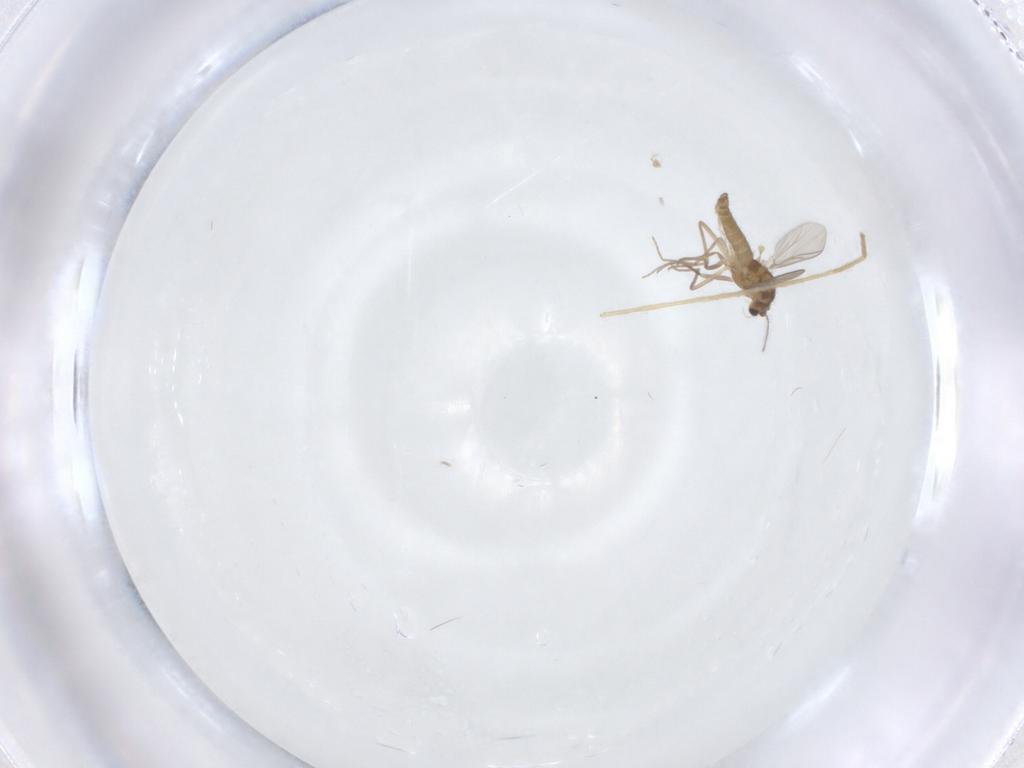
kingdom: Animalia
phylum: Arthropoda
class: Insecta
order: Diptera
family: Chironomidae
